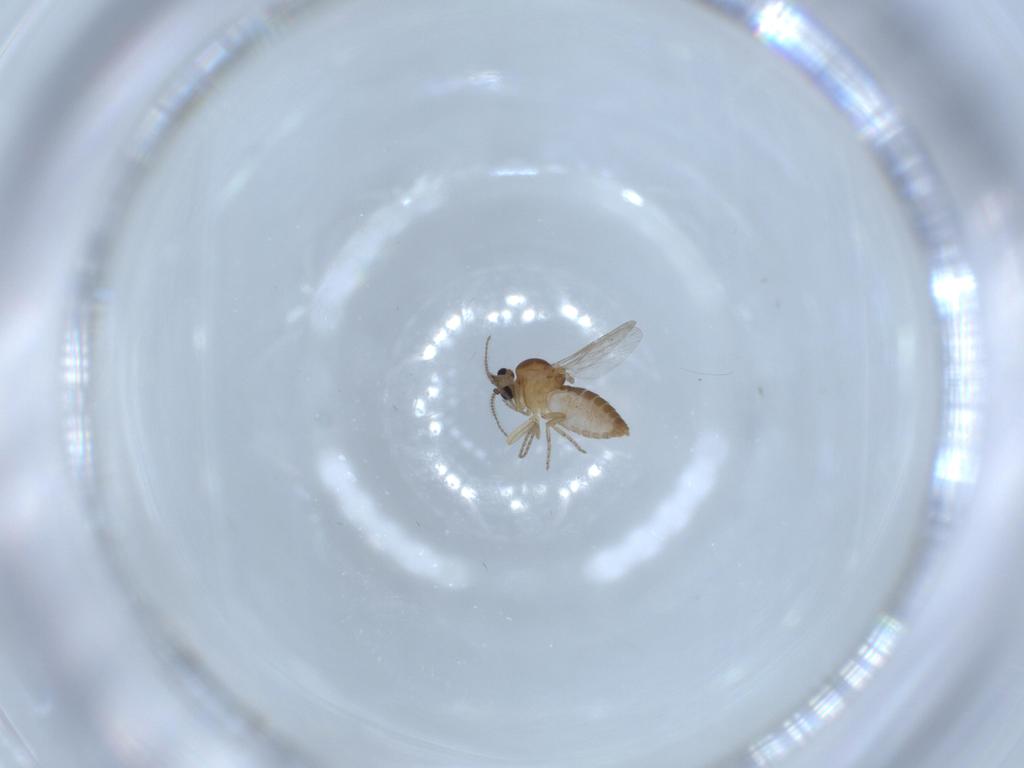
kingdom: Animalia
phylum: Arthropoda
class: Insecta
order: Diptera
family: Ceratopogonidae
